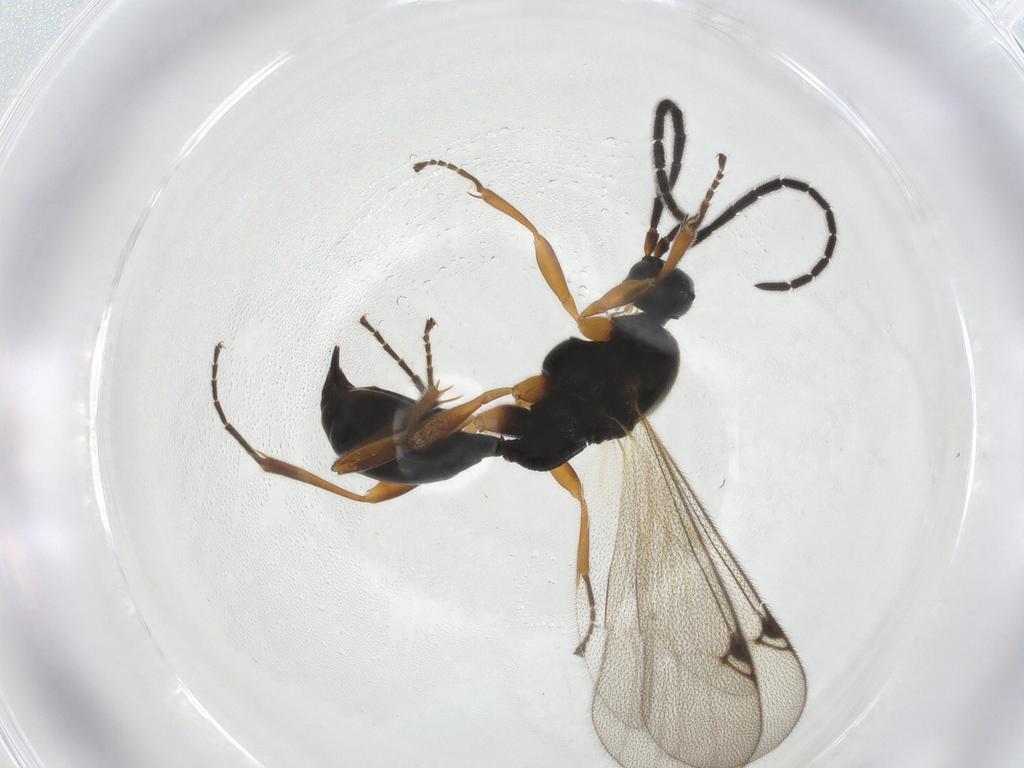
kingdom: Animalia
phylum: Arthropoda
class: Insecta
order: Hymenoptera
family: Proctotrupidae
